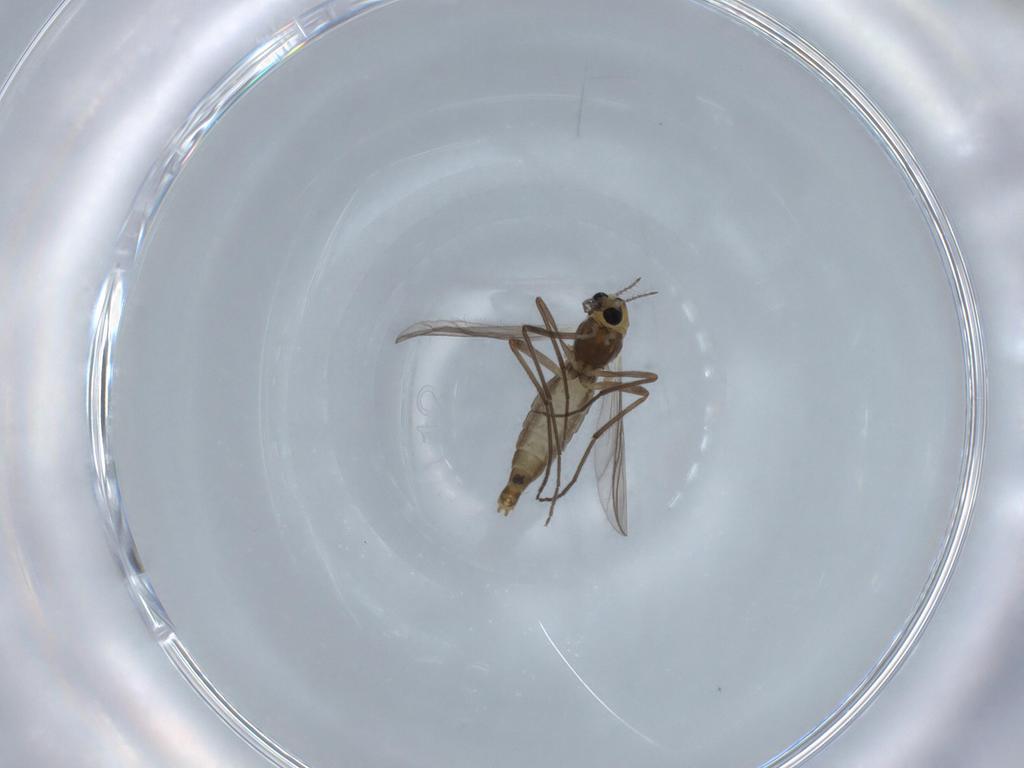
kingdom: Animalia
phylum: Arthropoda
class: Insecta
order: Diptera
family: Chironomidae
